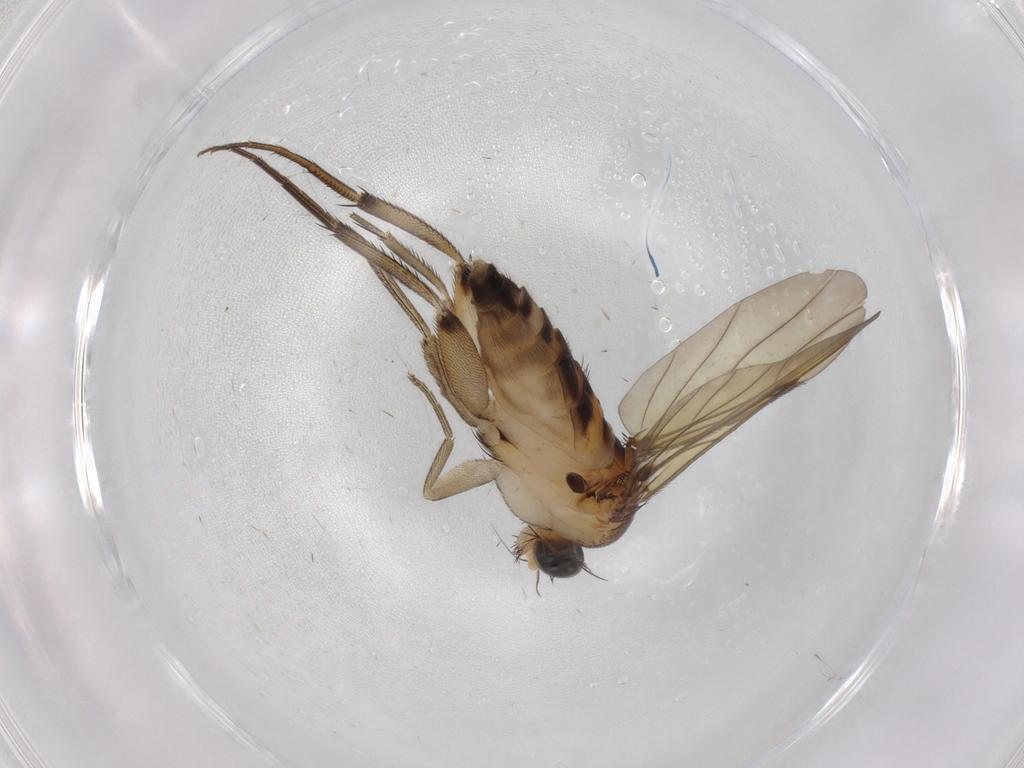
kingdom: Animalia
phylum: Arthropoda
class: Insecta
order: Diptera
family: Phoridae
